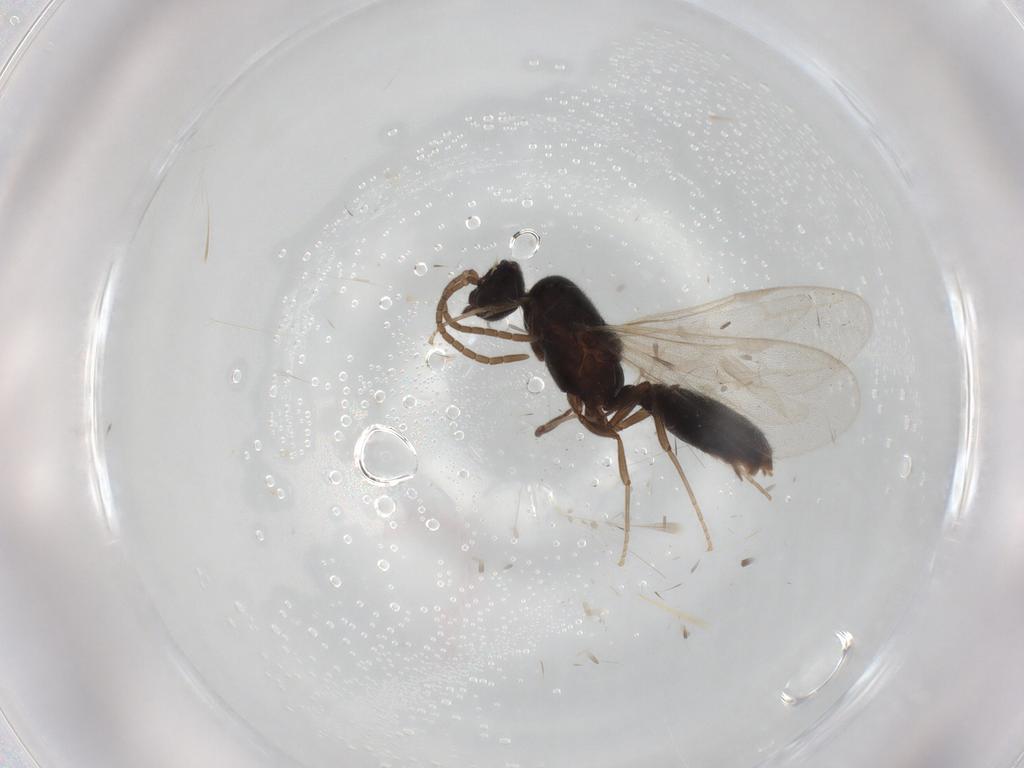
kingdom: Animalia
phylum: Arthropoda
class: Insecta
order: Hymenoptera
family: Formicidae
